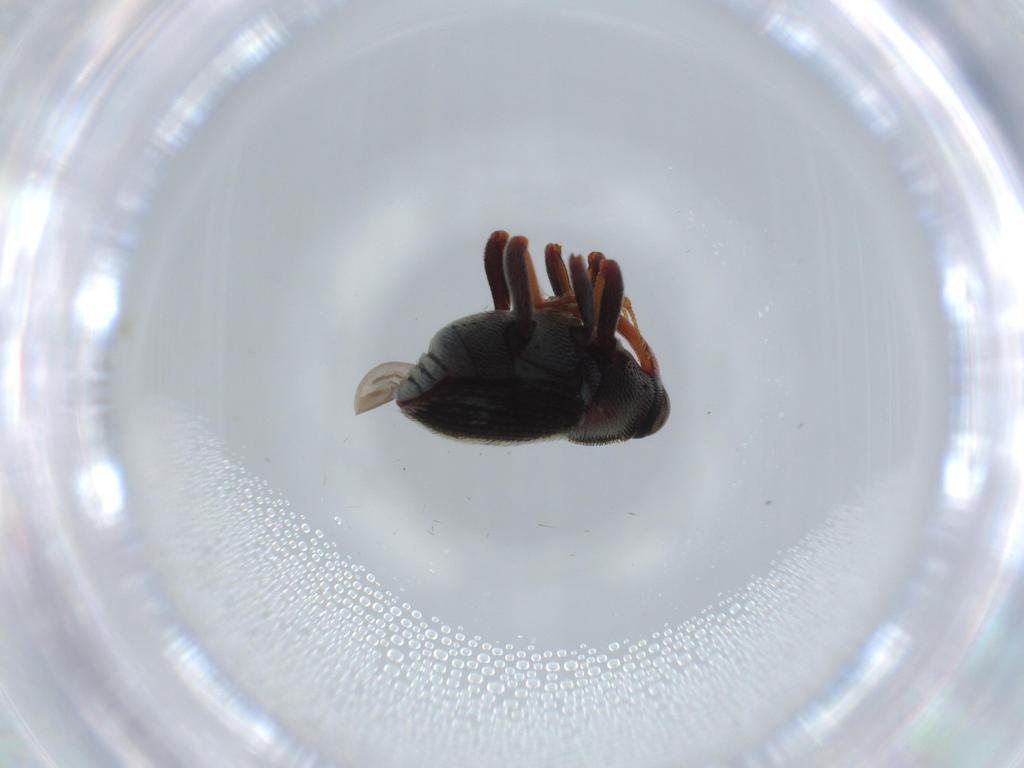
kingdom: Animalia
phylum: Arthropoda
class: Insecta
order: Coleoptera
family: Curculionidae
